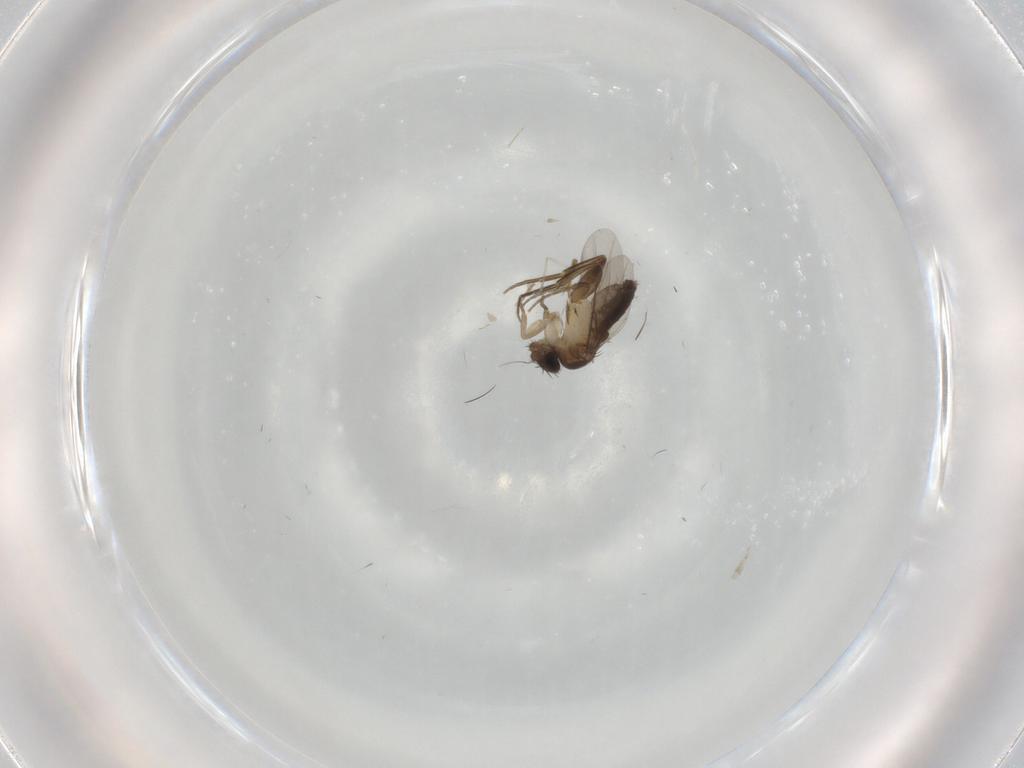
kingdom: Animalia
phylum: Arthropoda
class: Insecta
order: Diptera
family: Phoridae
